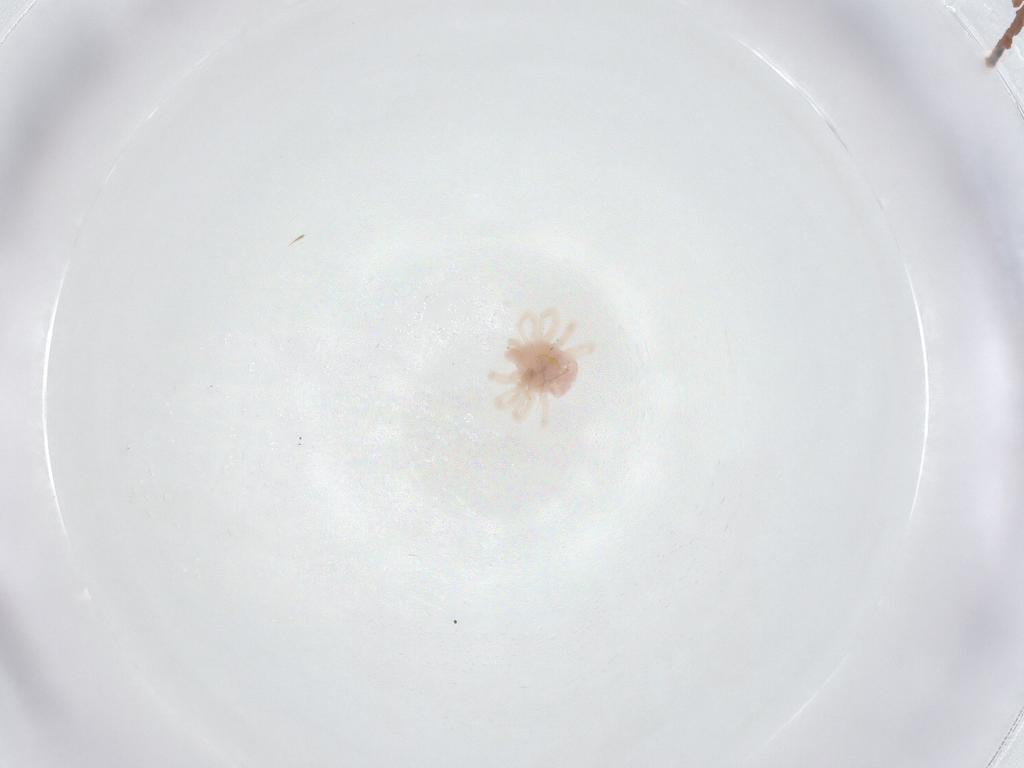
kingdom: Animalia
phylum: Arthropoda
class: Arachnida
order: Trombidiformes
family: Anystidae
